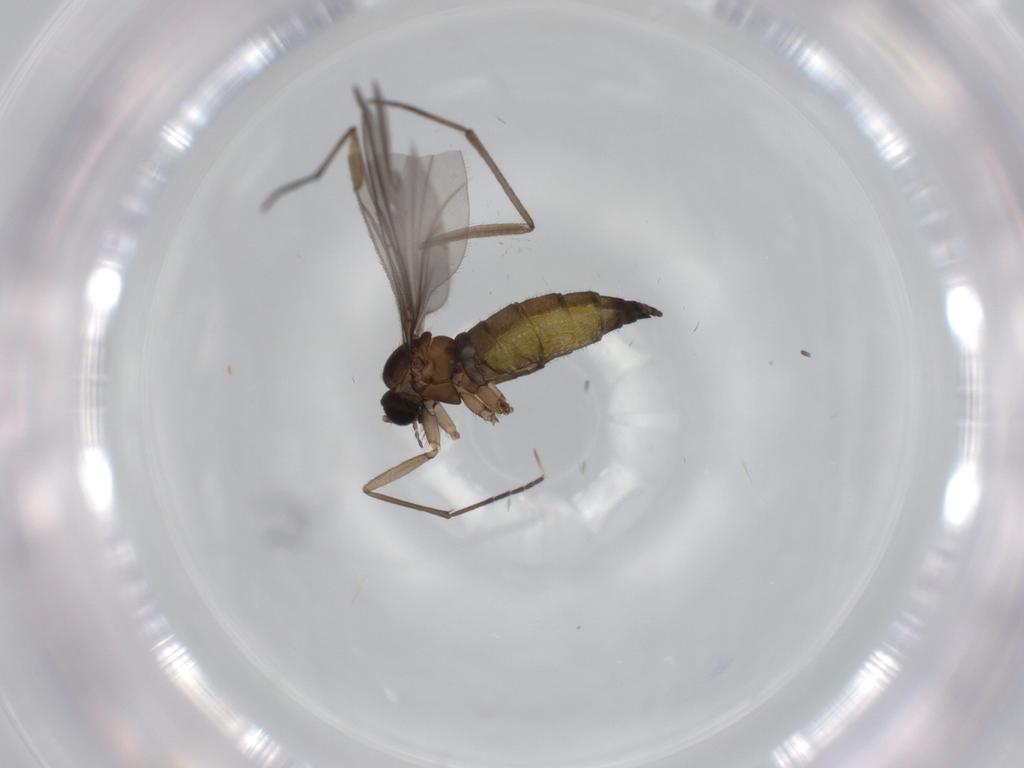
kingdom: Animalia
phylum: Arthropoda
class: Insecta
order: Diptera
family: Sciaridae
